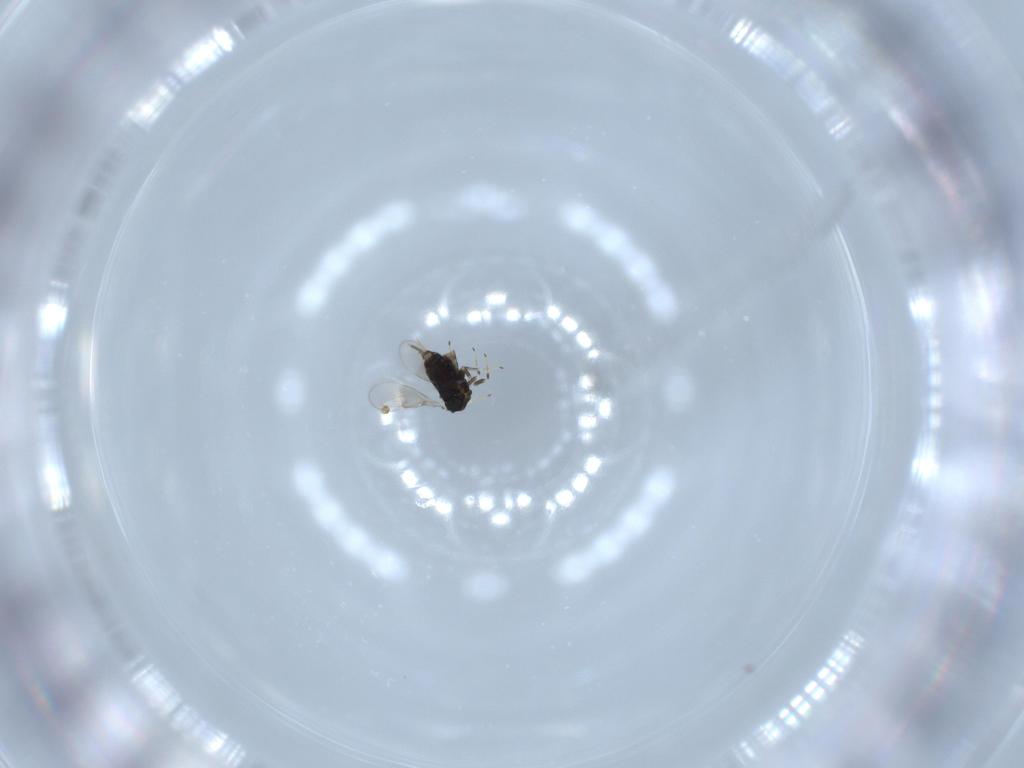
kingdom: Animalia
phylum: Arthropoda
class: Insecta
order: Hymenoptera
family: Azotidae
